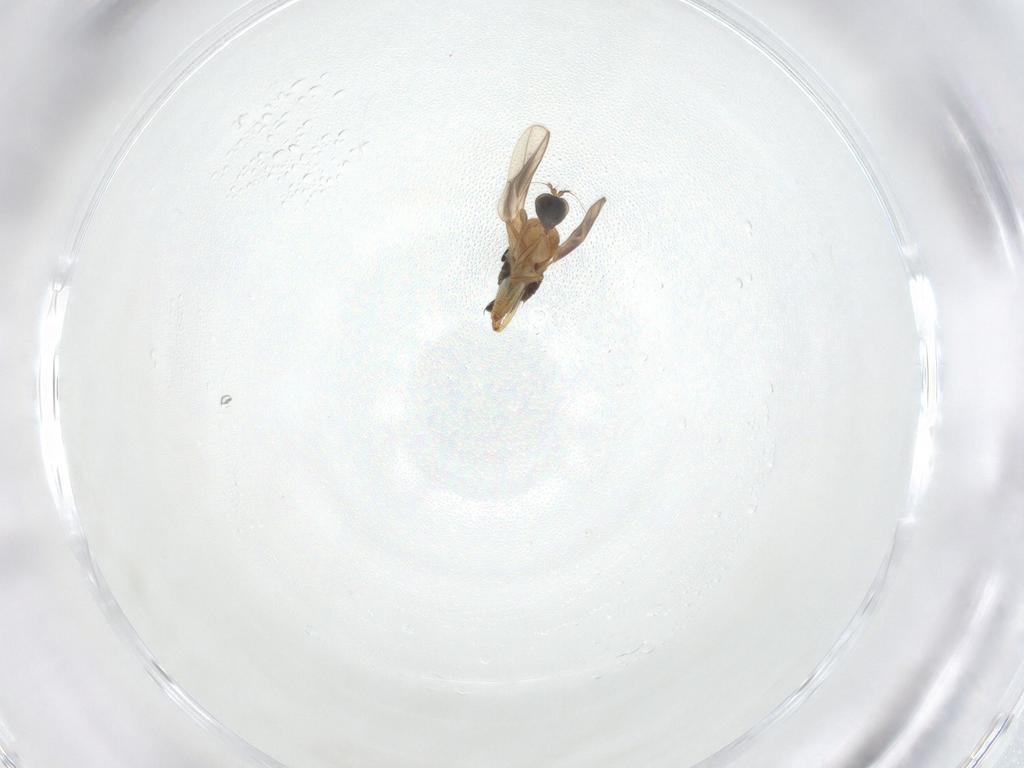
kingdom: Animalia
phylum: Arthropoda
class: Insecta
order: Diptera
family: Hybotidae
